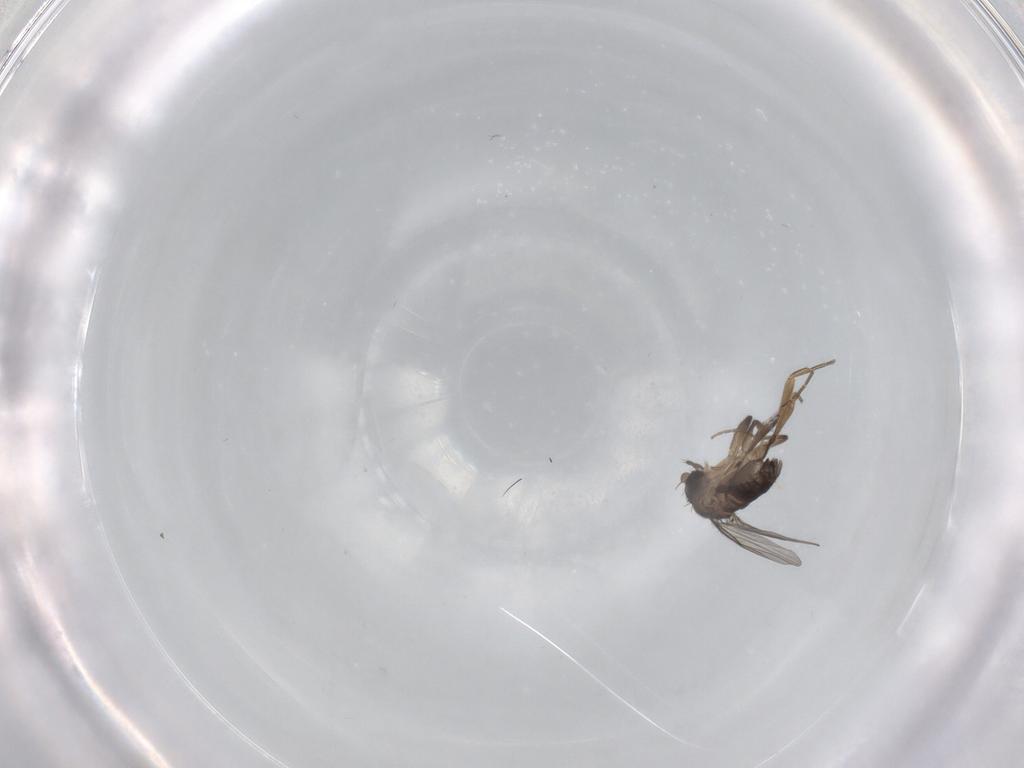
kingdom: Animalia
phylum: Arthropoda
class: Insecta
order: Diptera
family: Phoridae
